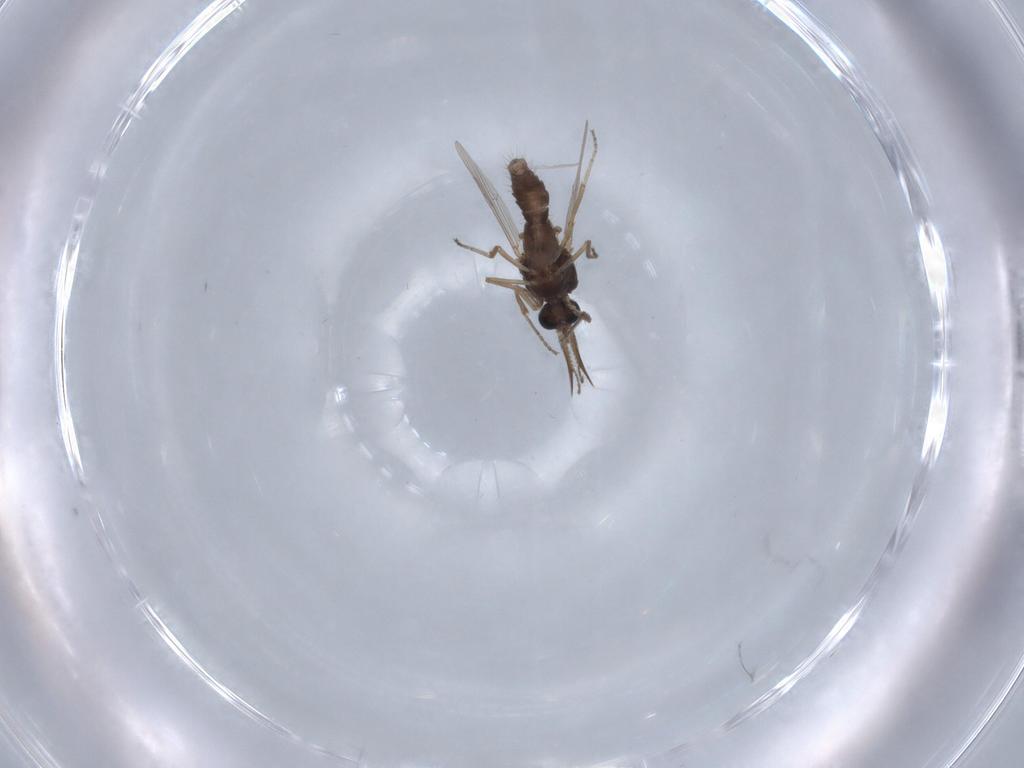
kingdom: Animalia
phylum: Arthropoda
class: Insecta
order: Diptera
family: Ceratopogonidae
